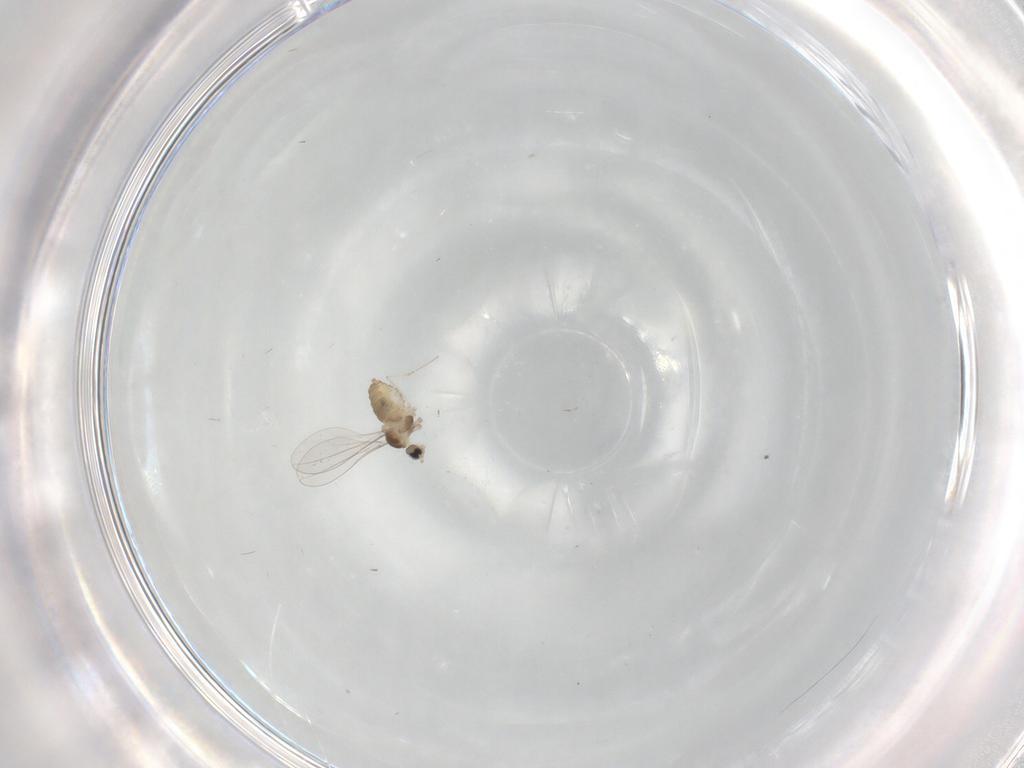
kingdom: Animalia
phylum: Arthropoda
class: Insecta
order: Diptera
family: Ceratopogonidae
